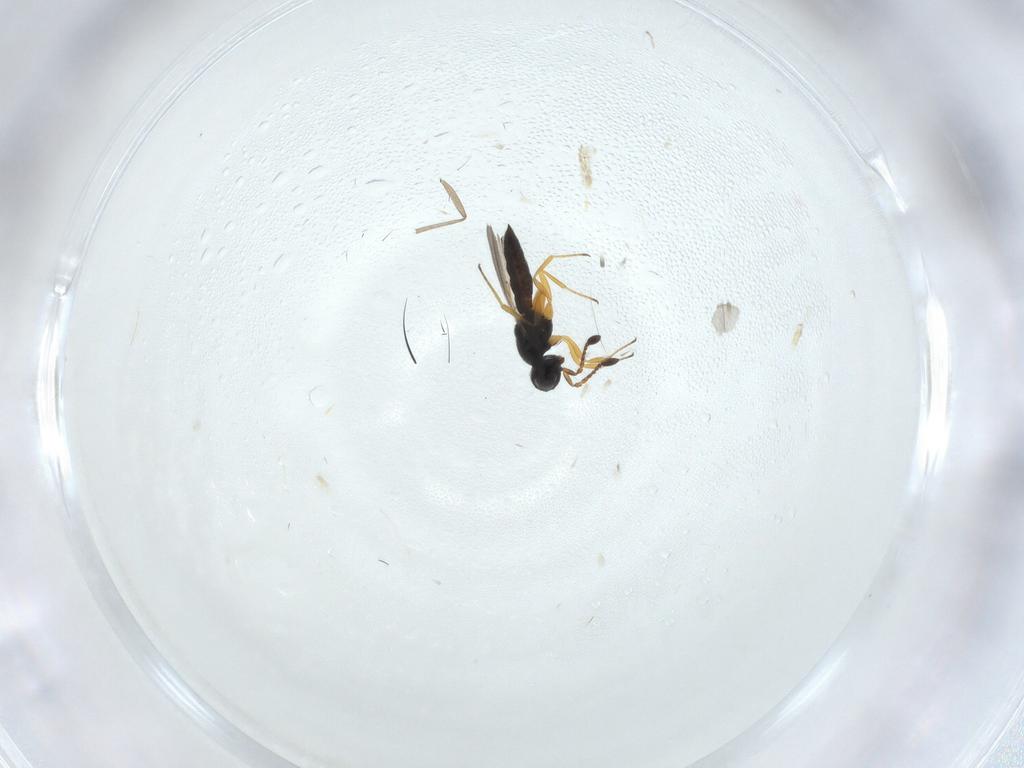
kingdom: Animalia
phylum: Arthropoda
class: Insecta
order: Hymenoptera
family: Scelionidae
